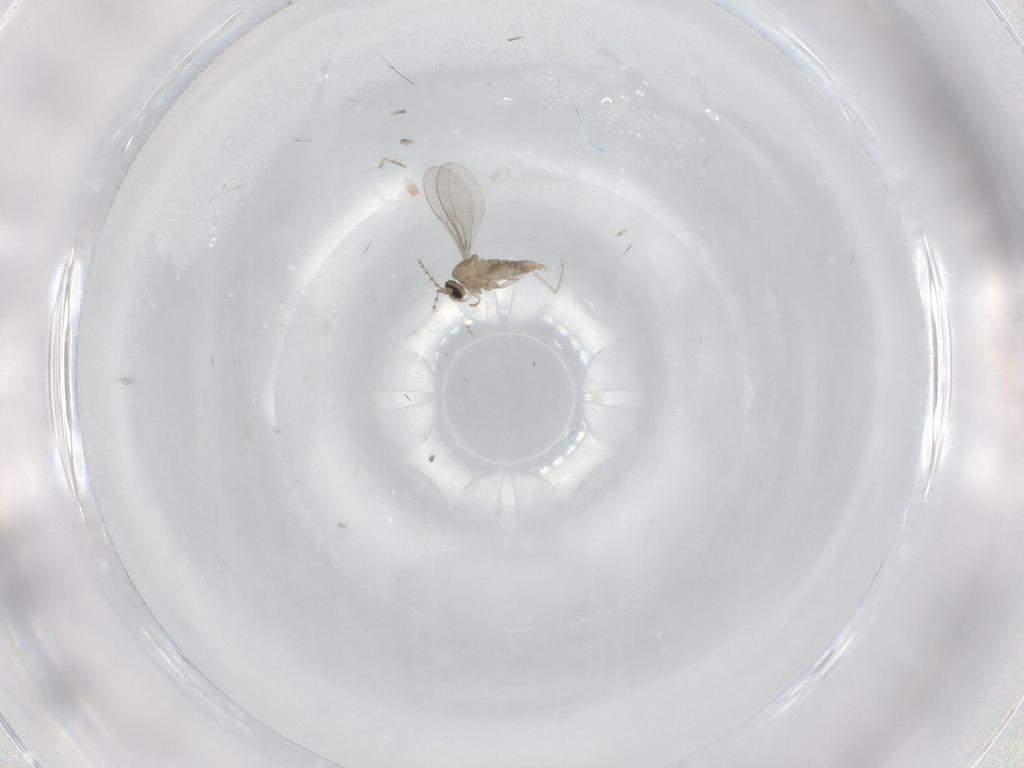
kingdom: Animalia
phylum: Arthropoda
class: Insecta
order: Diptera
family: Cecidomyiidae
